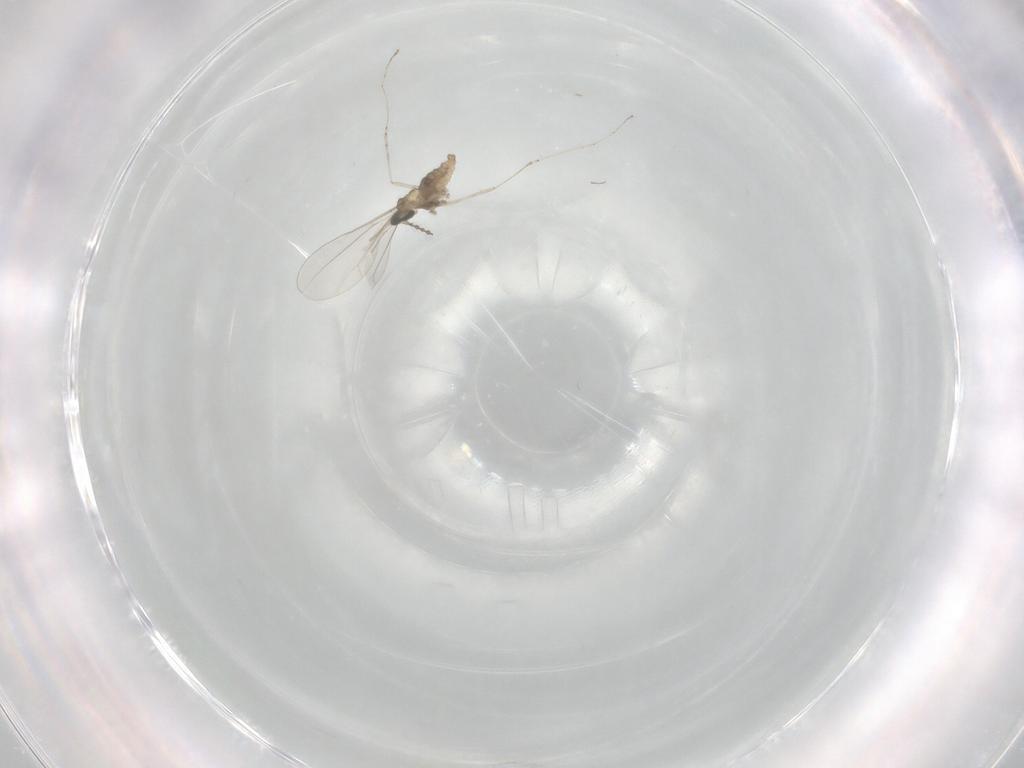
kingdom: Animalia
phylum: Arthropoda
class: Insecta
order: Diptera
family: Cecidomyiidae
